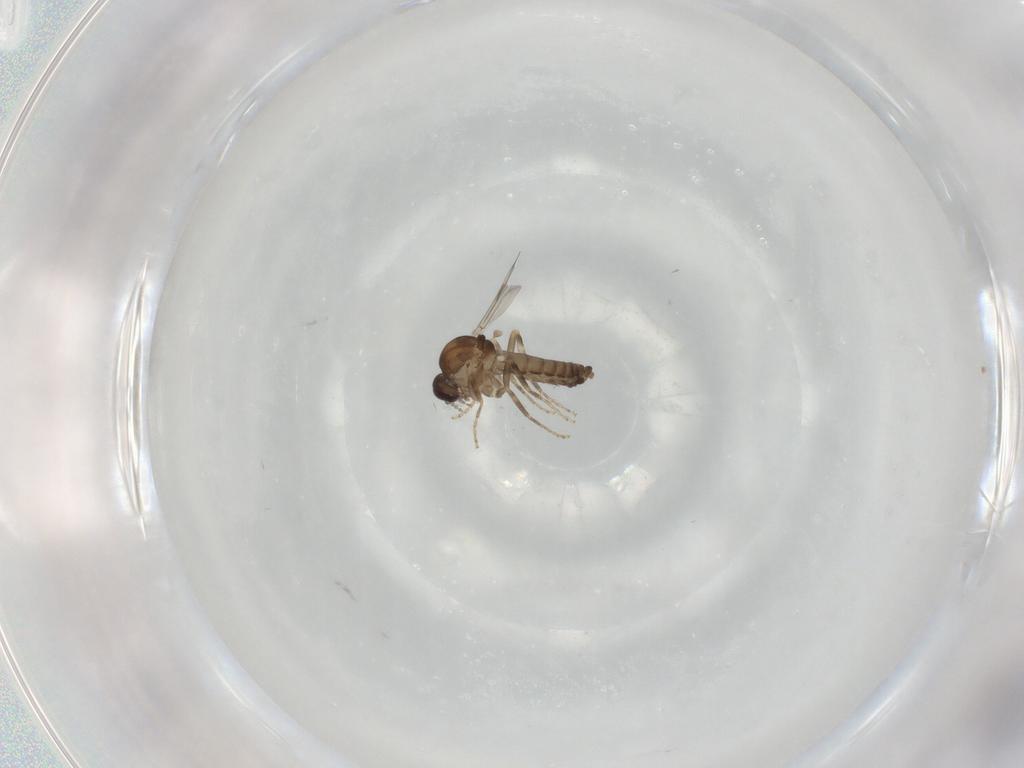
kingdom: Animalia
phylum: Arthropoda
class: Insecta
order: Diptera
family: Ceratopogonidae
